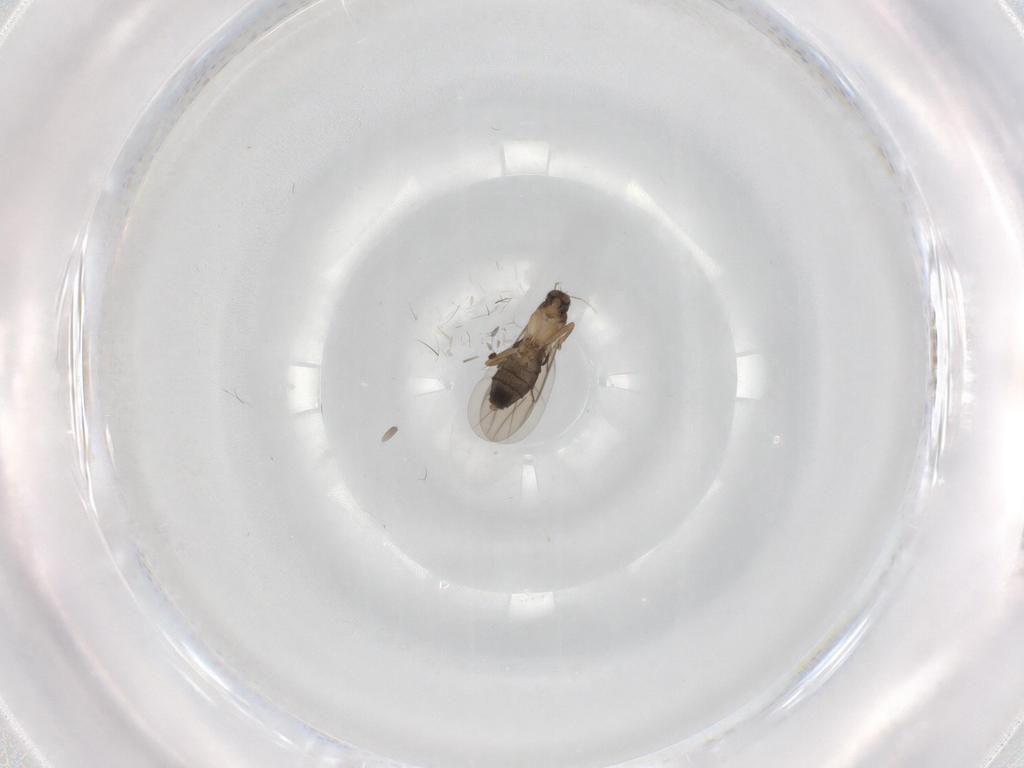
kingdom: Animalia
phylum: Arthropoda
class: Insecta
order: Diptera
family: Phoridae
